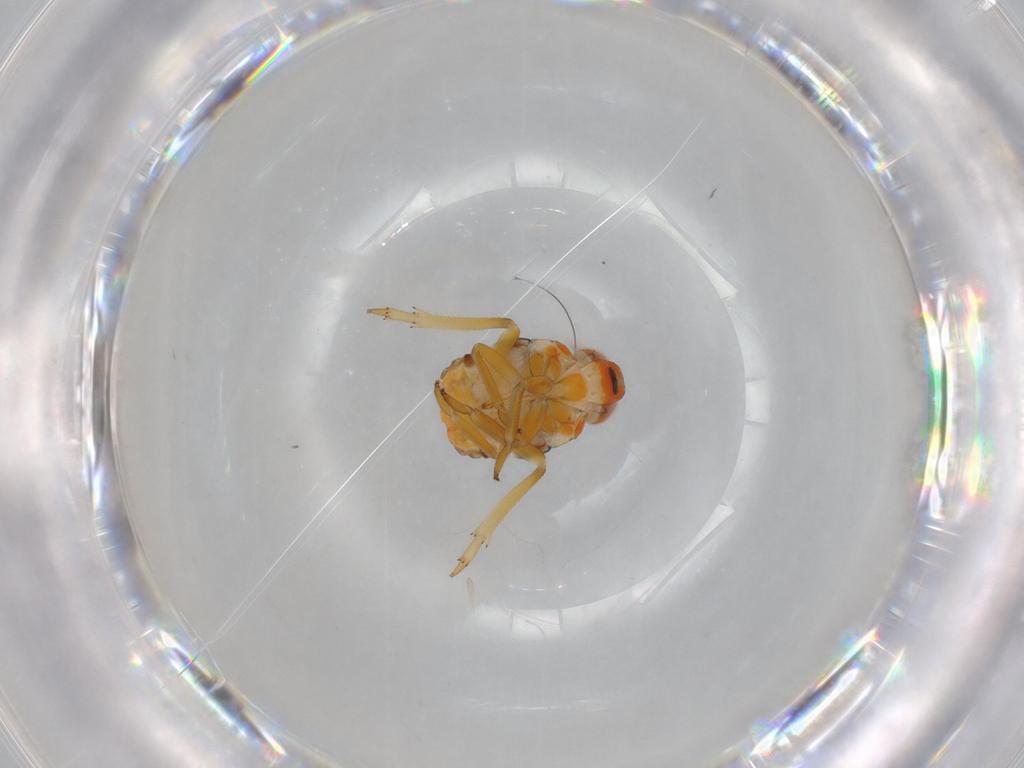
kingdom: Animalia
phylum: Arthropoda
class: Insecta
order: Hemiptera
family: Issidae
